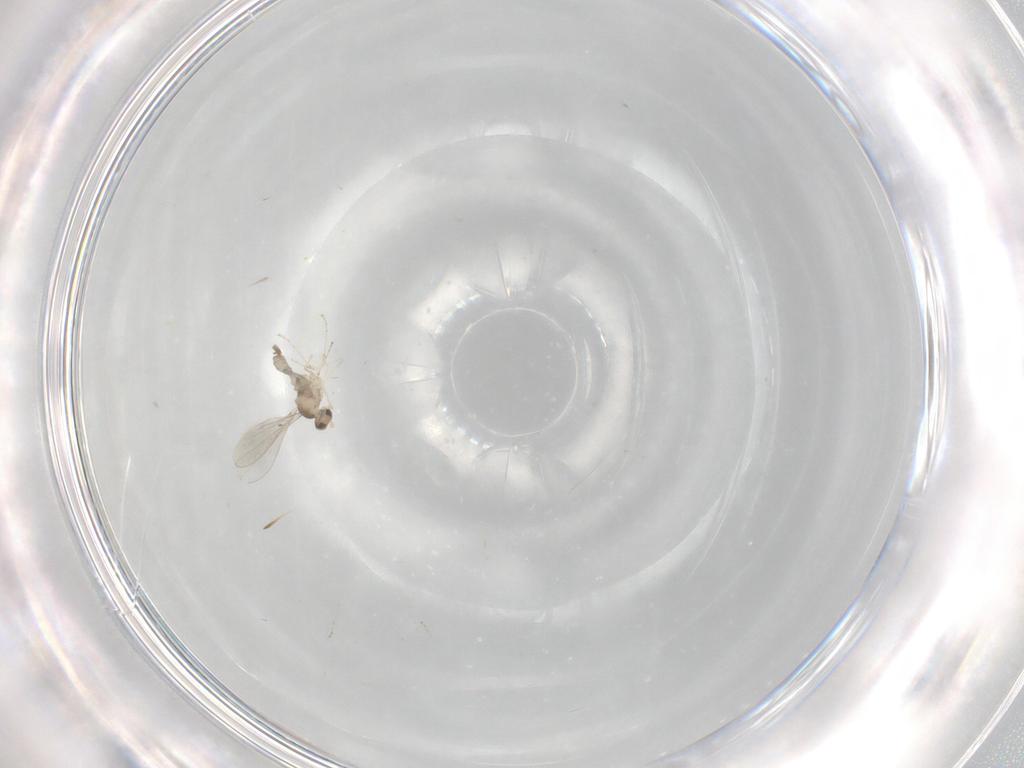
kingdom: Animalia
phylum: Arthropoda
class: Insecta
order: Diptera
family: Cecidomyiidae
